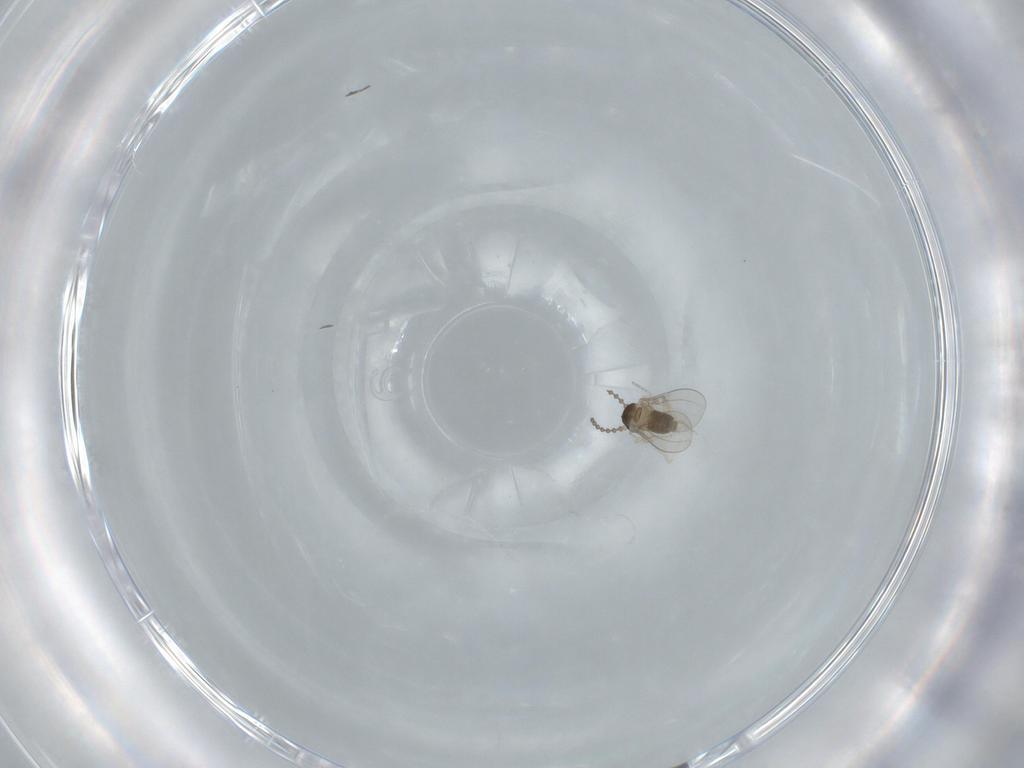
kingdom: Animalia
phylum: Arthropoda
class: Insecta
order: Diptera
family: Cecidomyiidae
